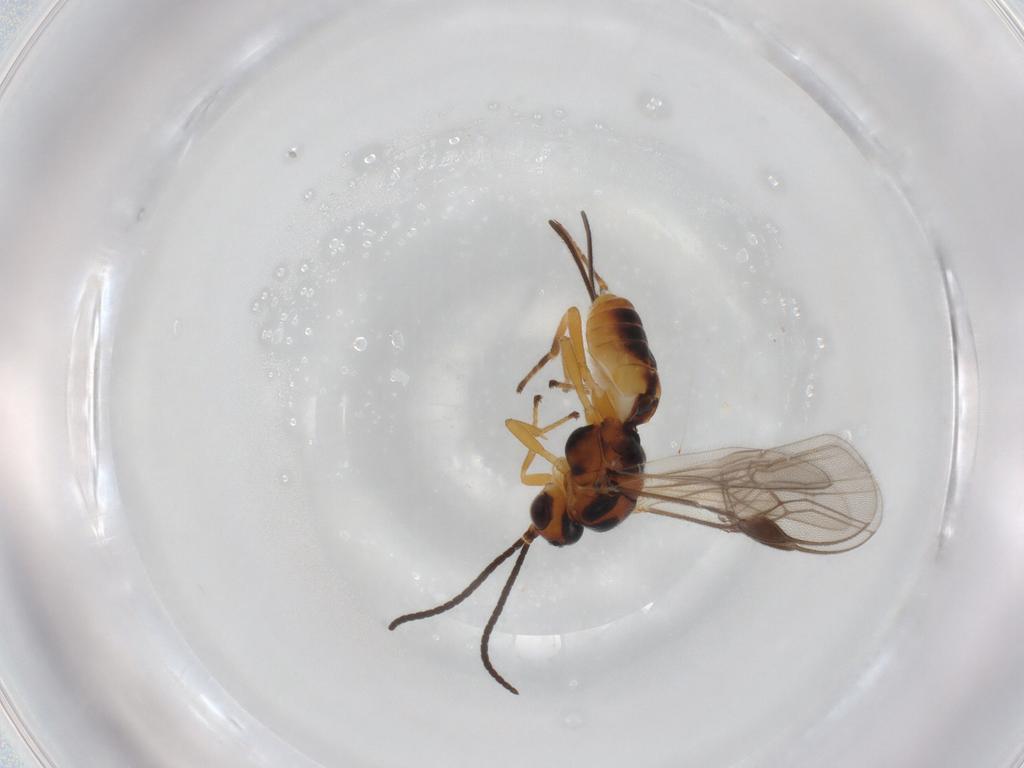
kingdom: Animalia
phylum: Arthropoda
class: Insecta
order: Hymenoptera
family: Braconidae
